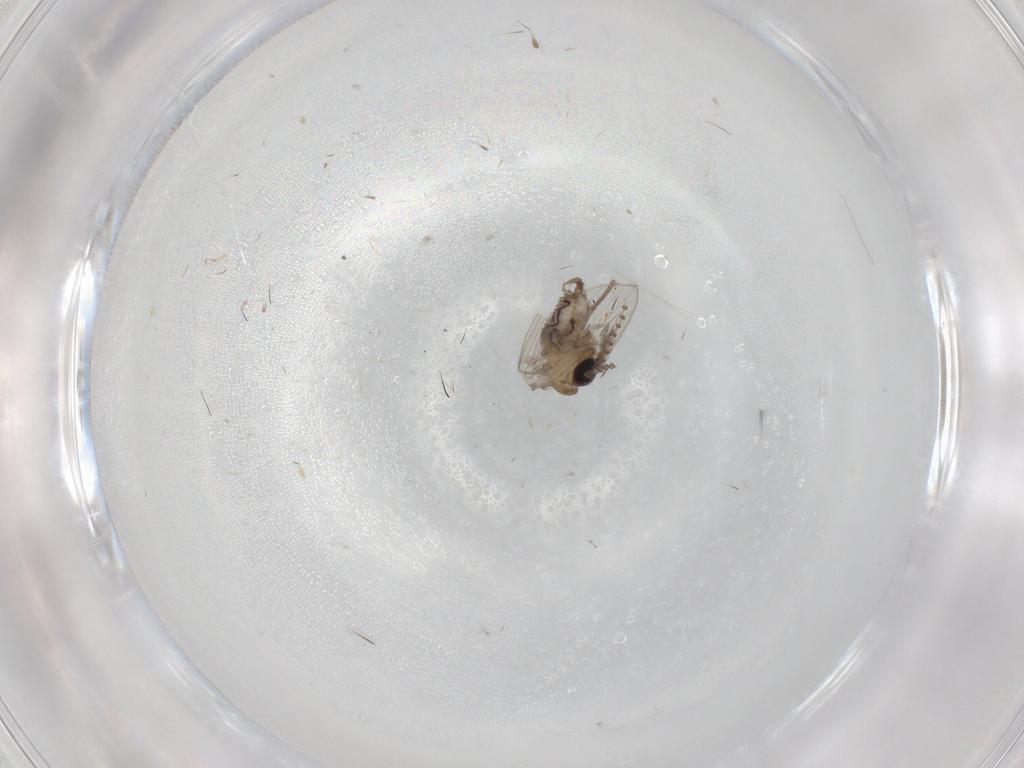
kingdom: Animalia
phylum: Arthropoda
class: Insecta
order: Diptera
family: Psychodidae
